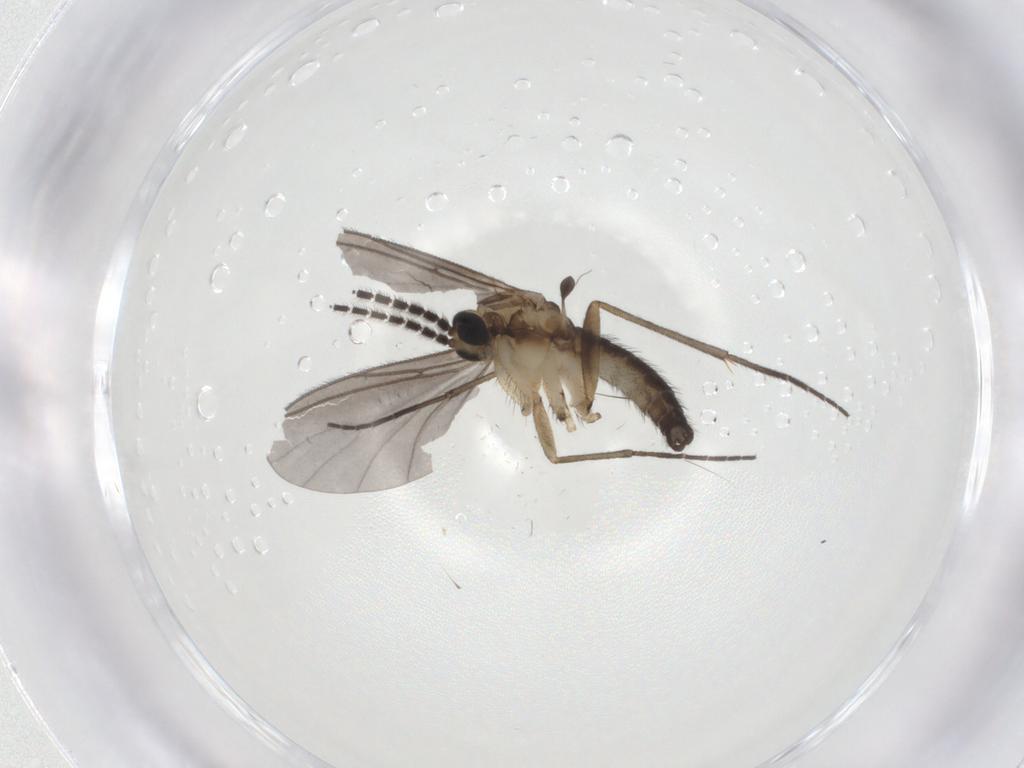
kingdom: Animalia
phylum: Arthropoda
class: Insecta
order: Diptera
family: Sciaridae
